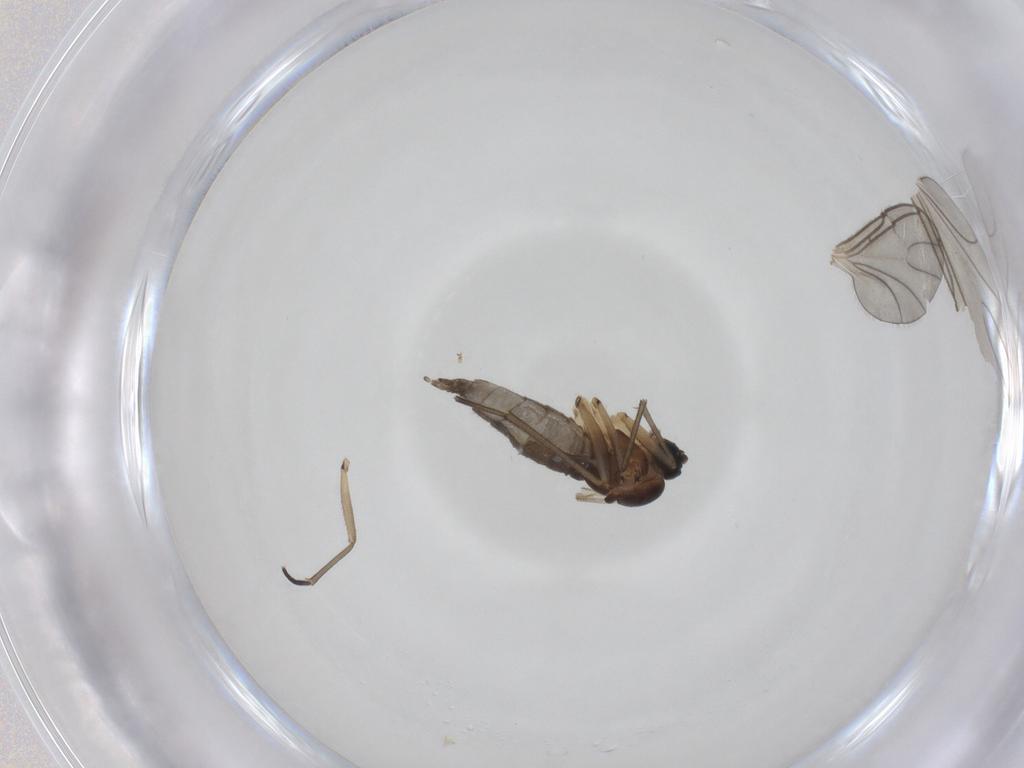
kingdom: Animalia
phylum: Arthropoda
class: Insecta
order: Diptera
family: Sciaridae
